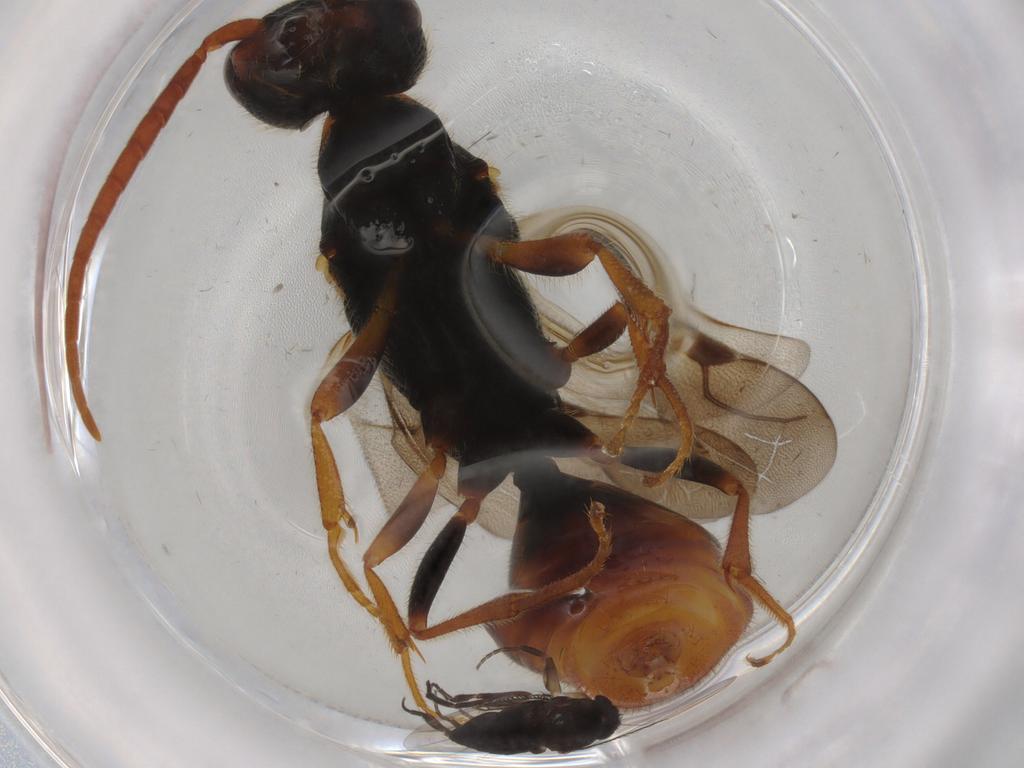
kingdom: Animalia
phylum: Arthropoda
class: Insecta
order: Diptera
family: Phoridae
